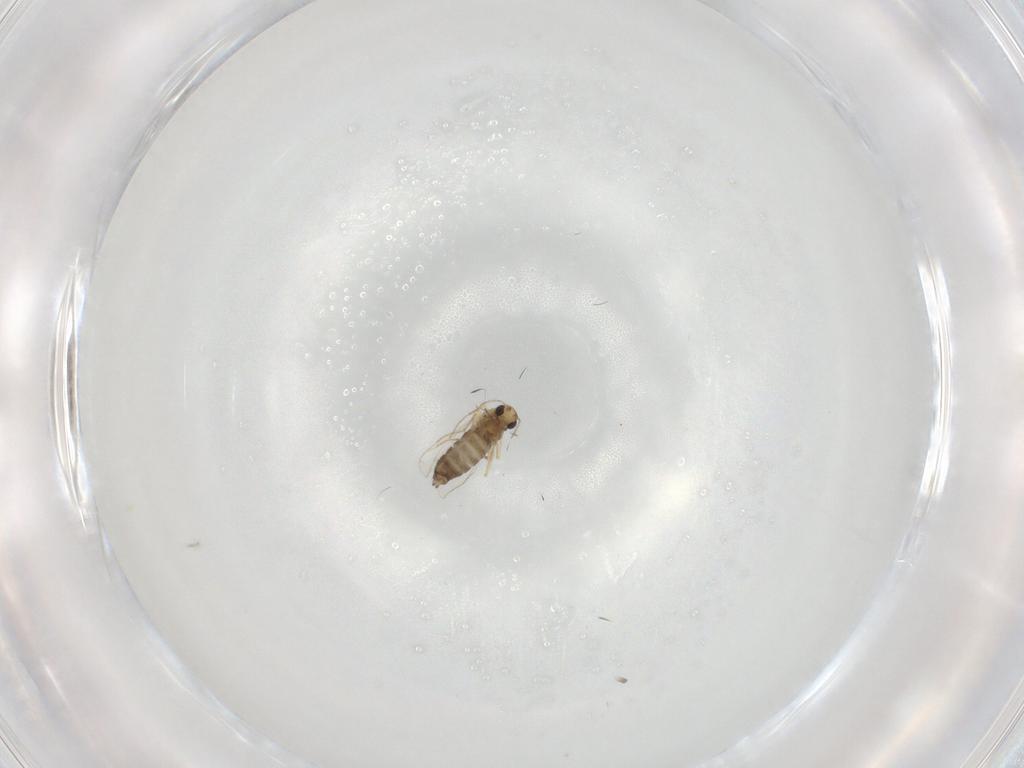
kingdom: Animalia
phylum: Arthropoda
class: Insecta
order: Diptera
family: Chironomidae
